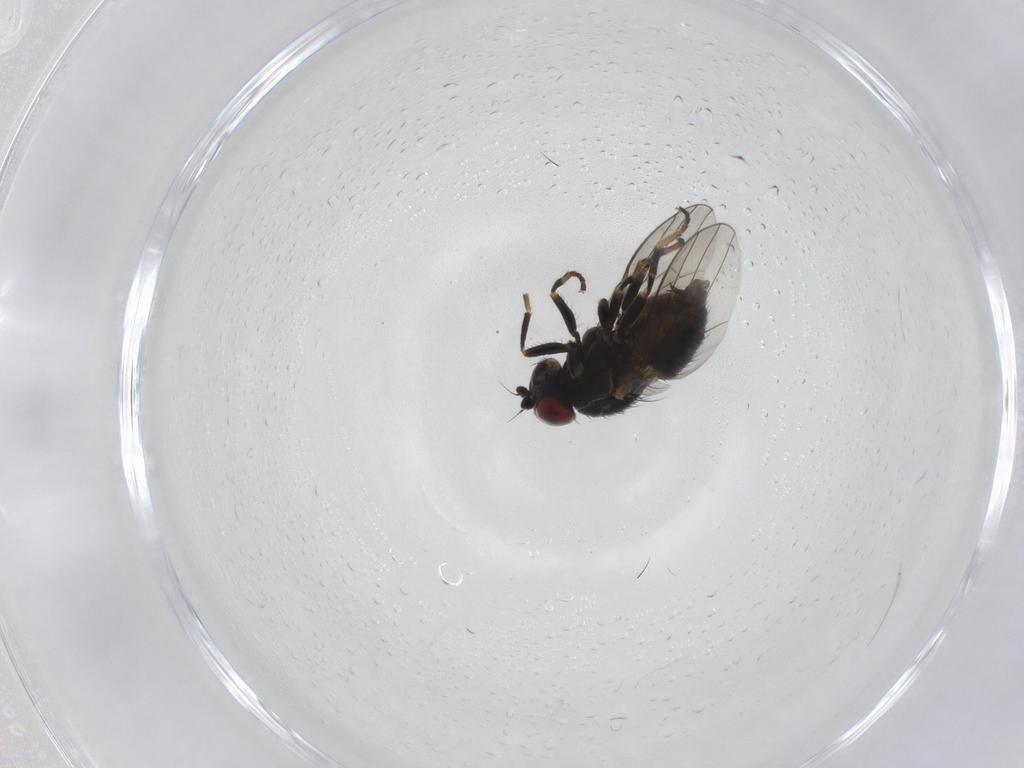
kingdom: Animalia
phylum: Arthropoda
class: Insecta
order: Diptera
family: Chamaemyiidae
